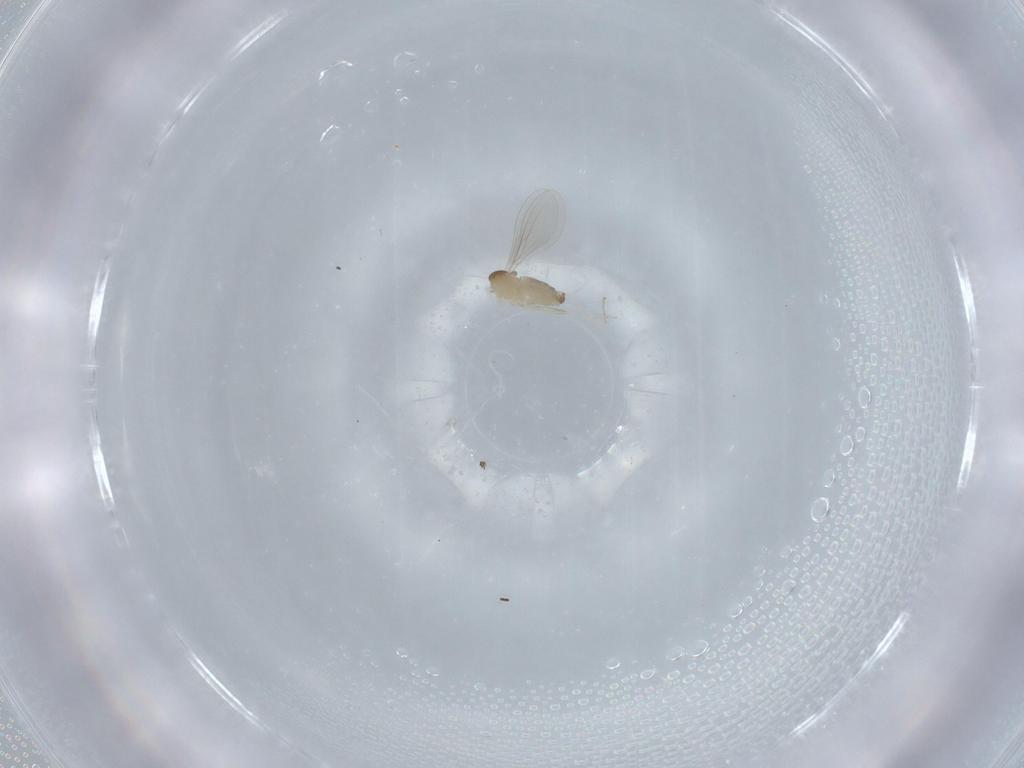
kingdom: Animalia
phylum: Arthropoda
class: Insecta
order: Diptera
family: Cecidomyiidae
